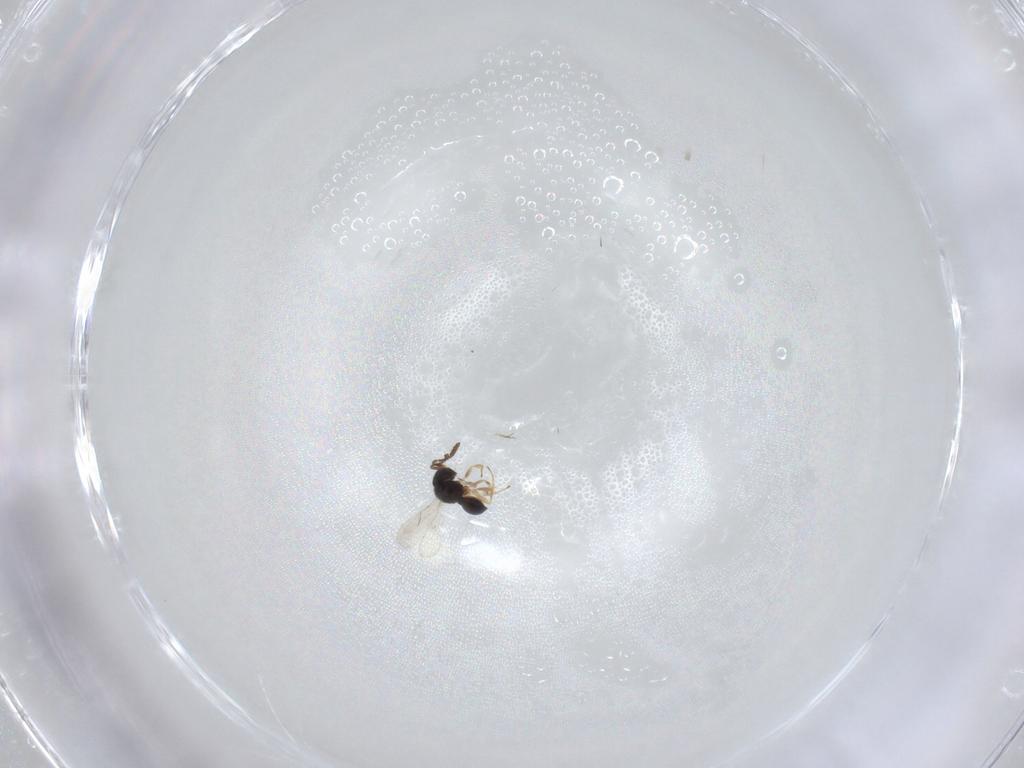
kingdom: Animalia
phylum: Arthropoda
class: Insecta
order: Hymenoptera
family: Scelionidae
